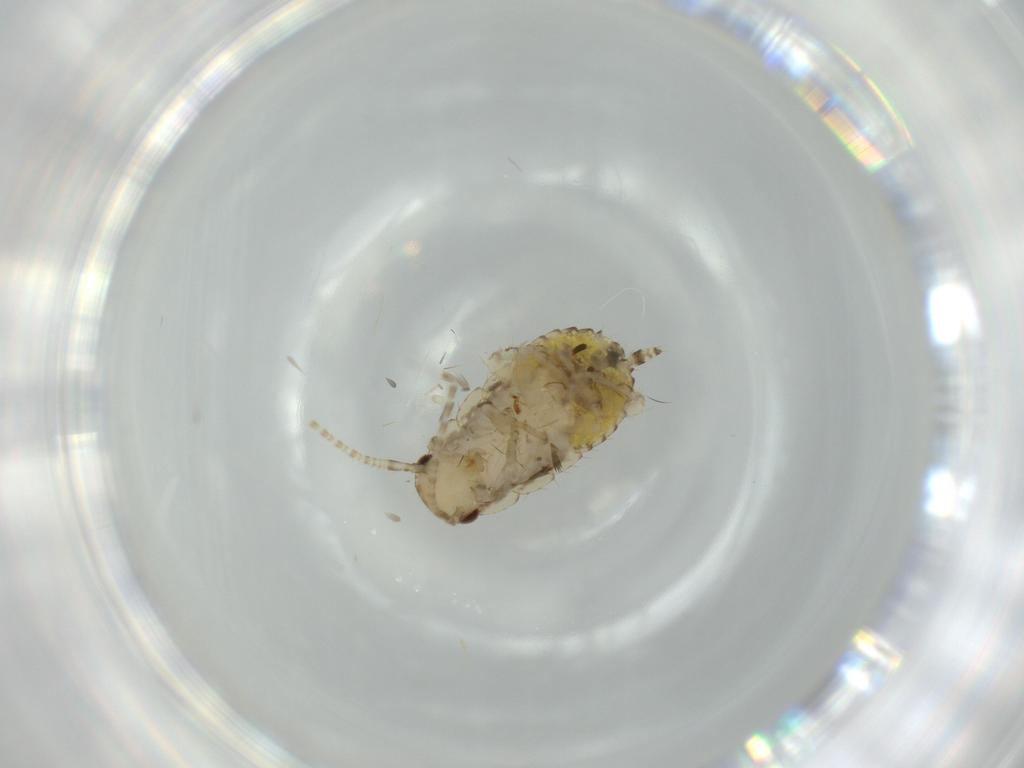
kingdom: Animalia
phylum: Arthropoda
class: Insecta
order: Blattodea
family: Ectobiidae
